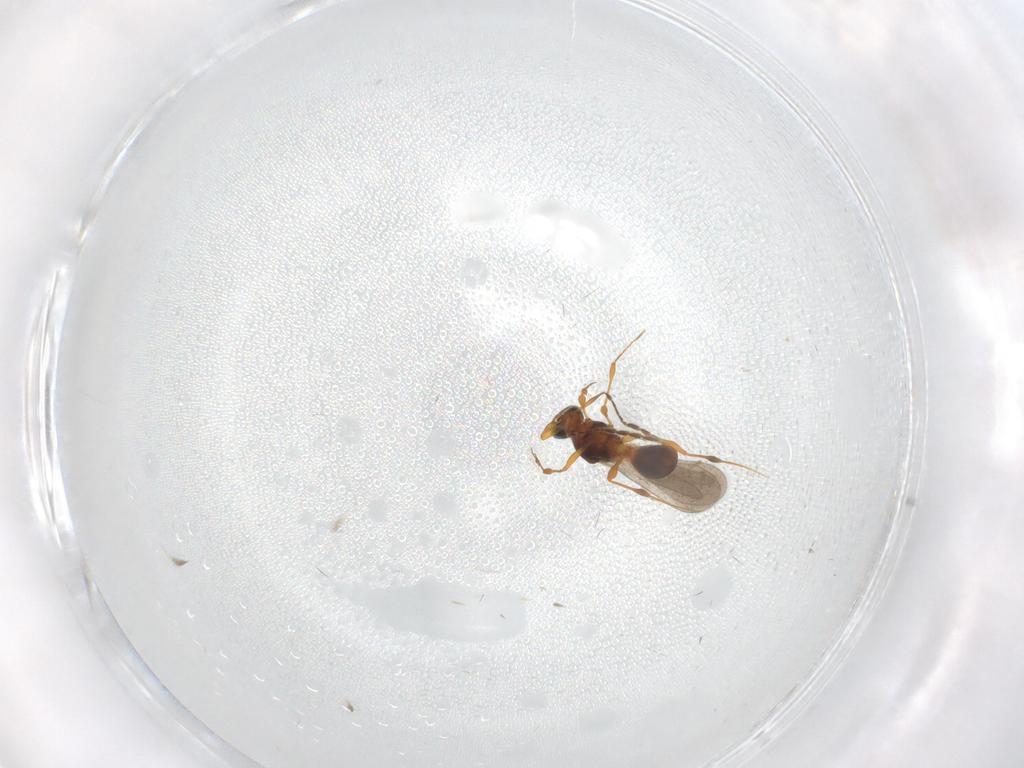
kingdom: Animalia
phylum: Arthropoda
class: Insecta
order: Hymenoptera
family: Platygastridae
